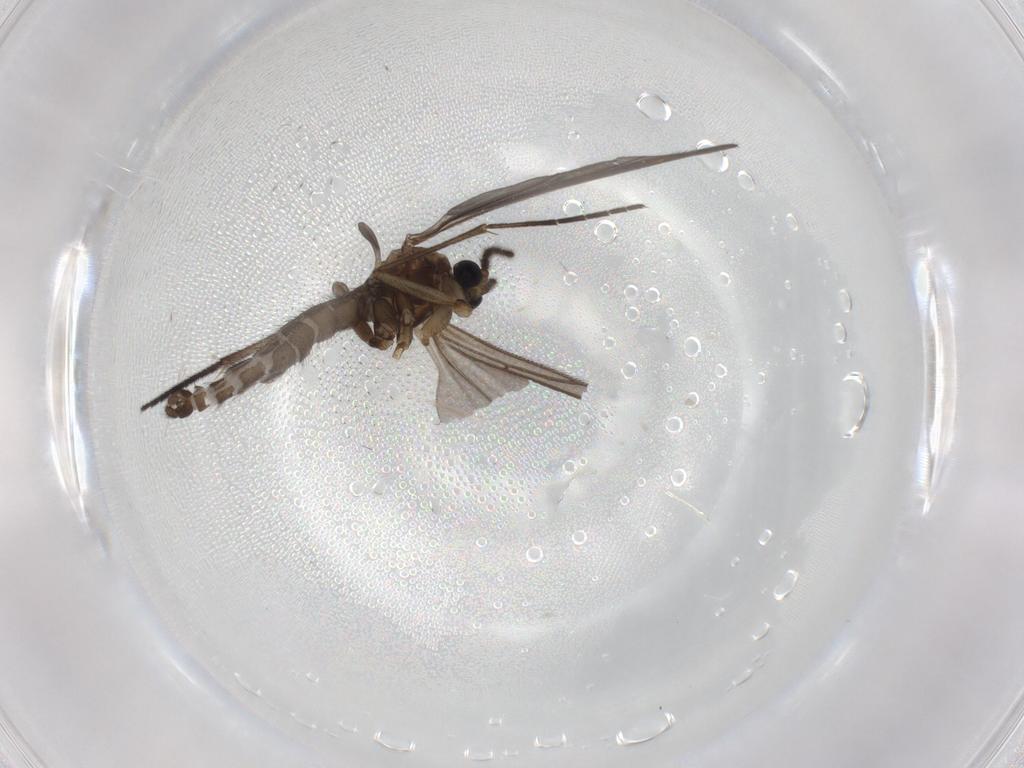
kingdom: Animalia
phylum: Arthropoda
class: Insecta
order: Diptera
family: Sciaridae
